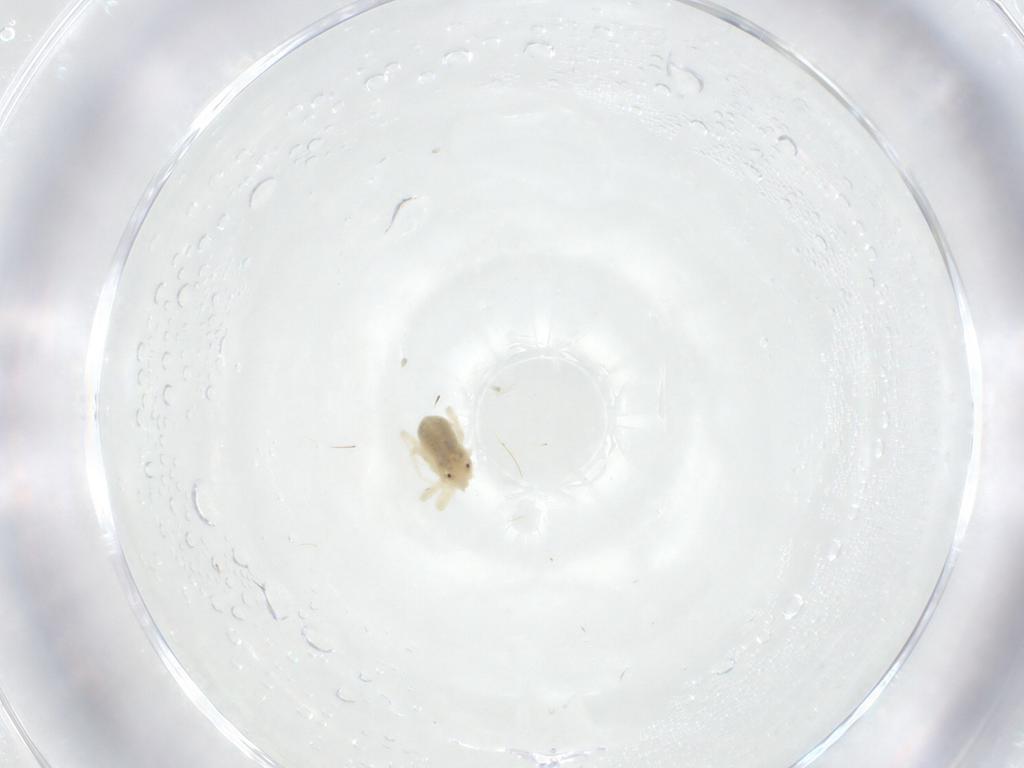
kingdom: Animalia
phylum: Arthropoda
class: Arachnida
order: Trombidiformes
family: Anystidae
